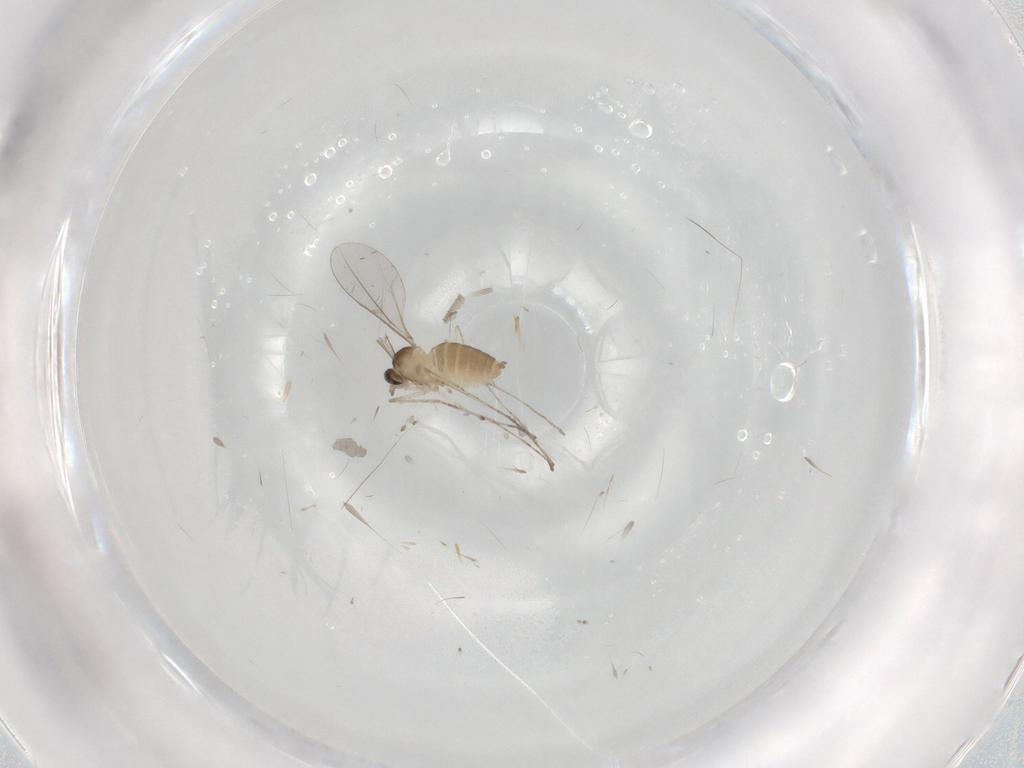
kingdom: Animalia
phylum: Arthropoda
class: Insecta
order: Diptera
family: Cecidomyiidae
